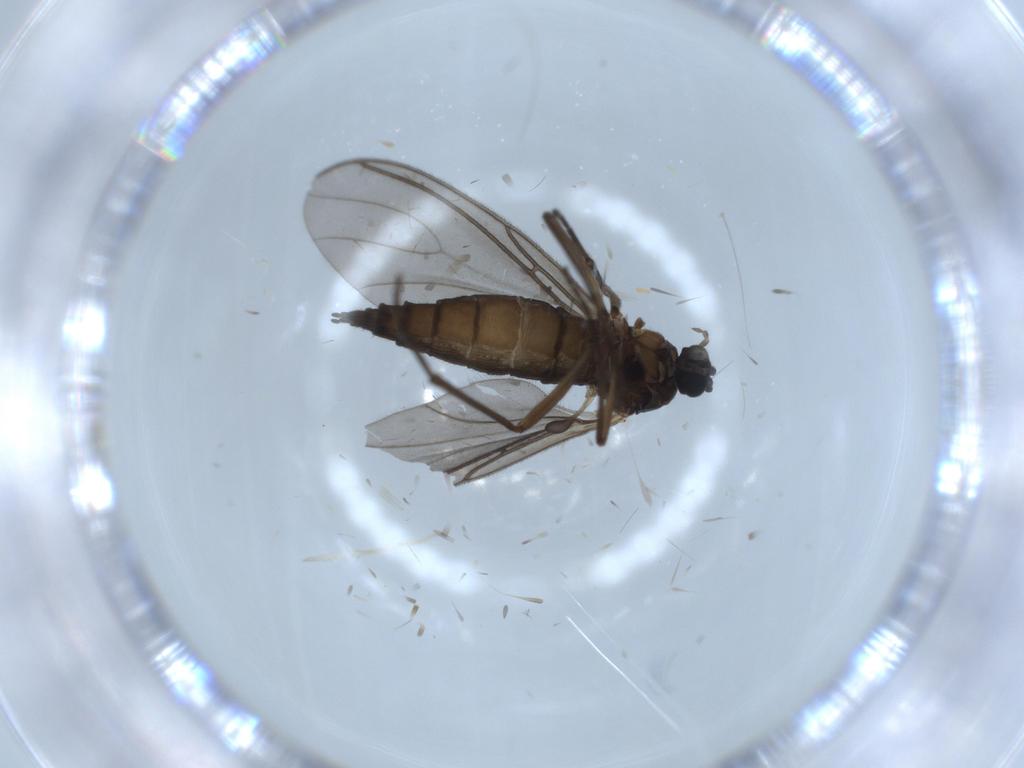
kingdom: Animalia
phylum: Arthropoda
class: Insecta
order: Diptera
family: Sciaridae
